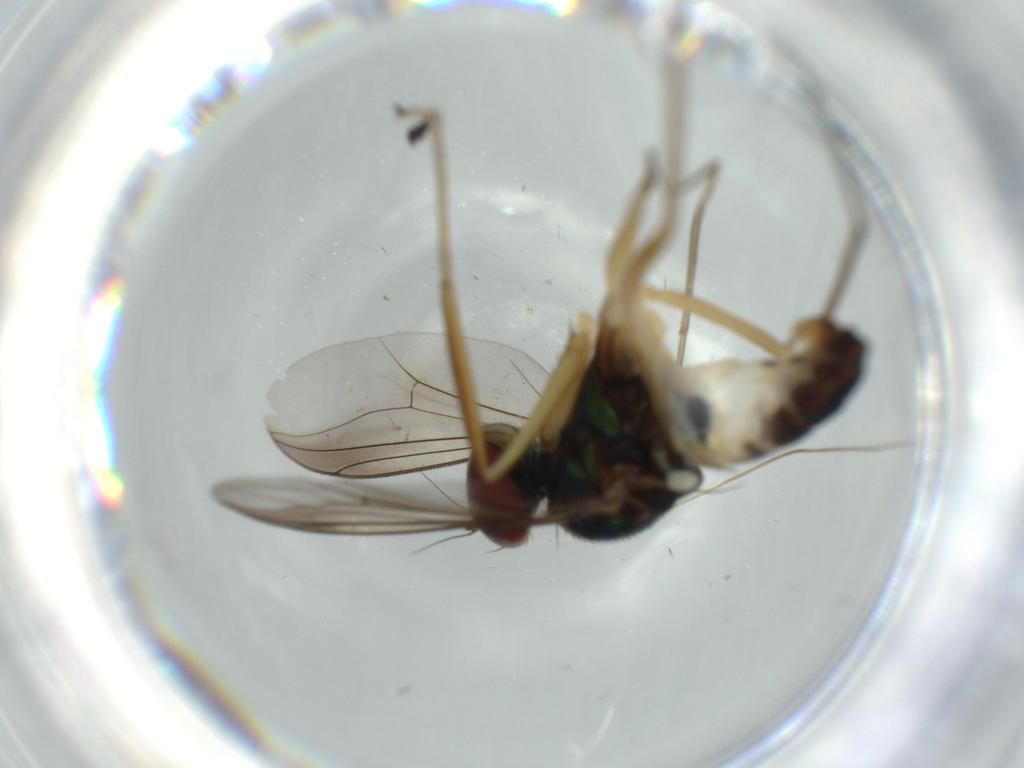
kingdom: Animalia
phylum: Arthropoda
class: Insecta
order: Diptera
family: Dolichopodidae
